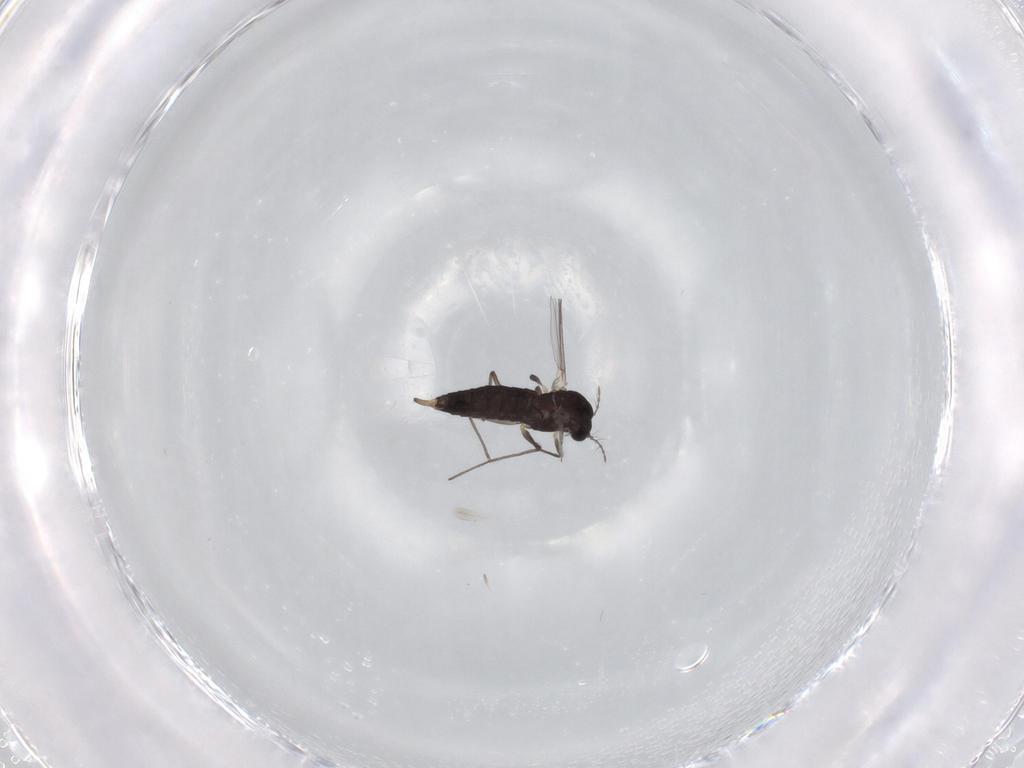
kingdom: Animalia
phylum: Arthropoda
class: Insecta
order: Diptera
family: Chironomidae
